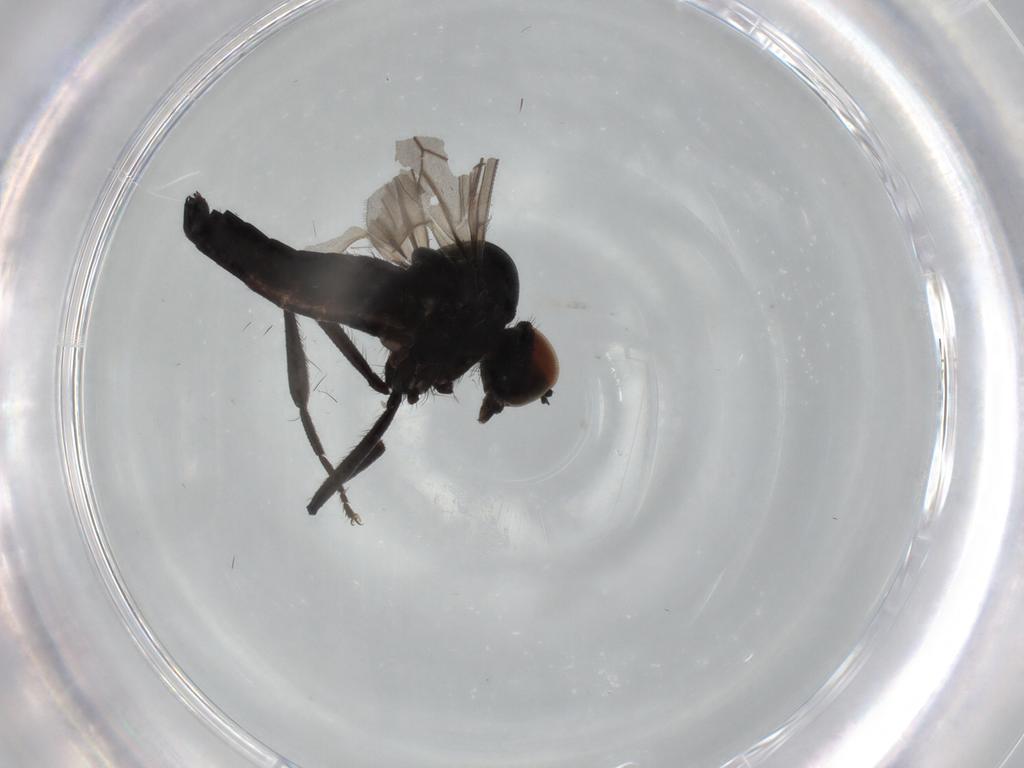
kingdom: Animalia
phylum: Arthropoda
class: Insecta
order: Diptera
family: Hybotidae
